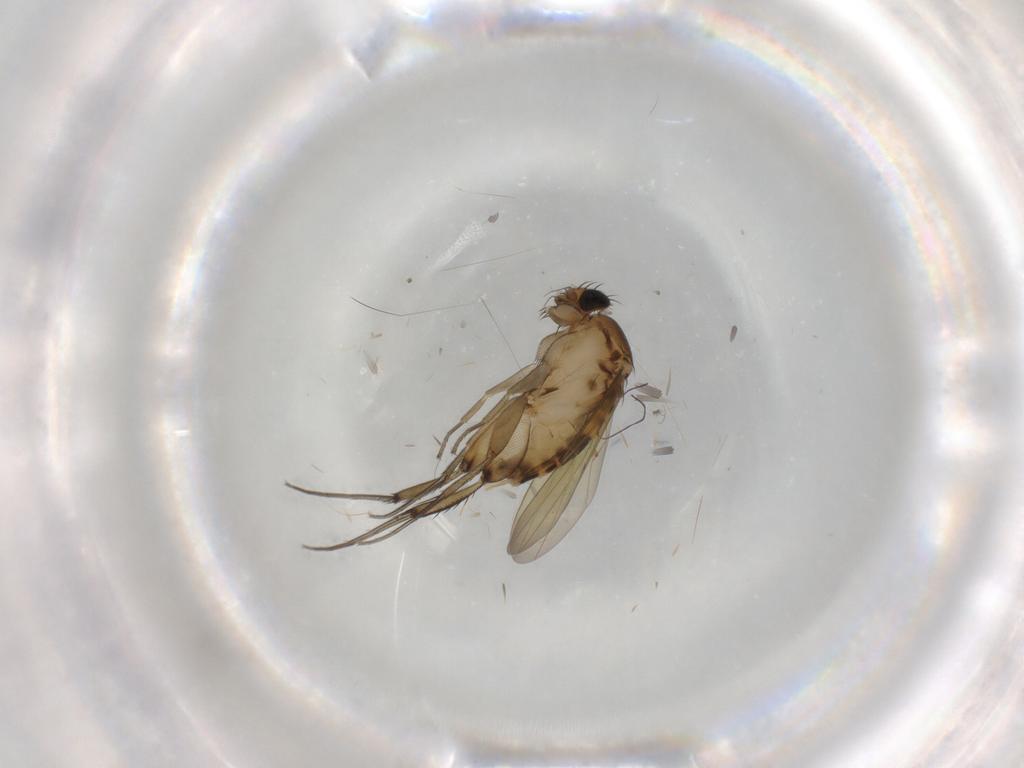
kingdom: Animalia
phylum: Arthropoda
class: Insecta
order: Diptera
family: Phoridae
